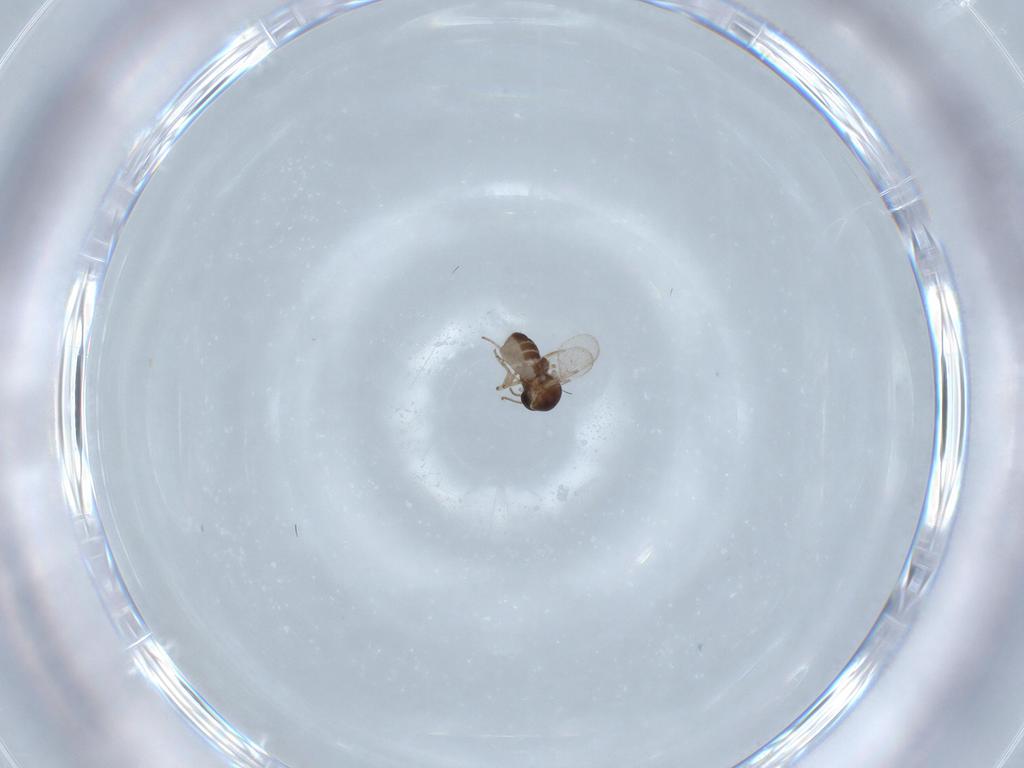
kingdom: Animalia
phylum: Arthropoda
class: Insecta
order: Diptera
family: Ceratopogonidae
